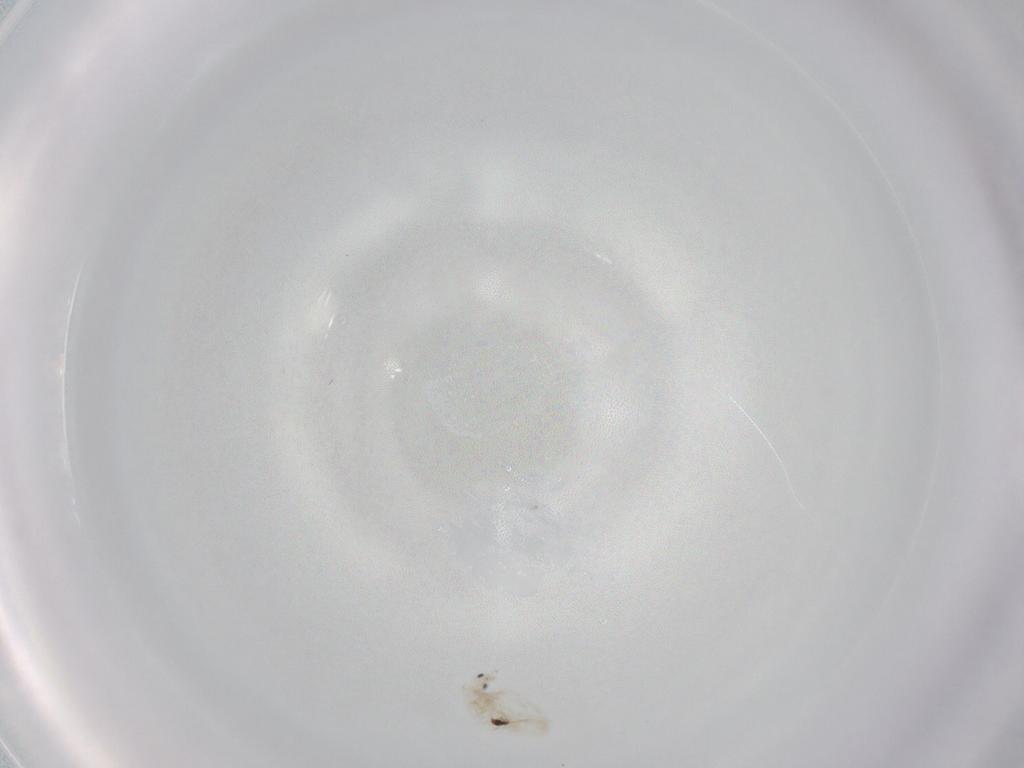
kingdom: Animalia
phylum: Arthropoda
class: Collembola
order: Entomobryomorpha
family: Entomobryidae
